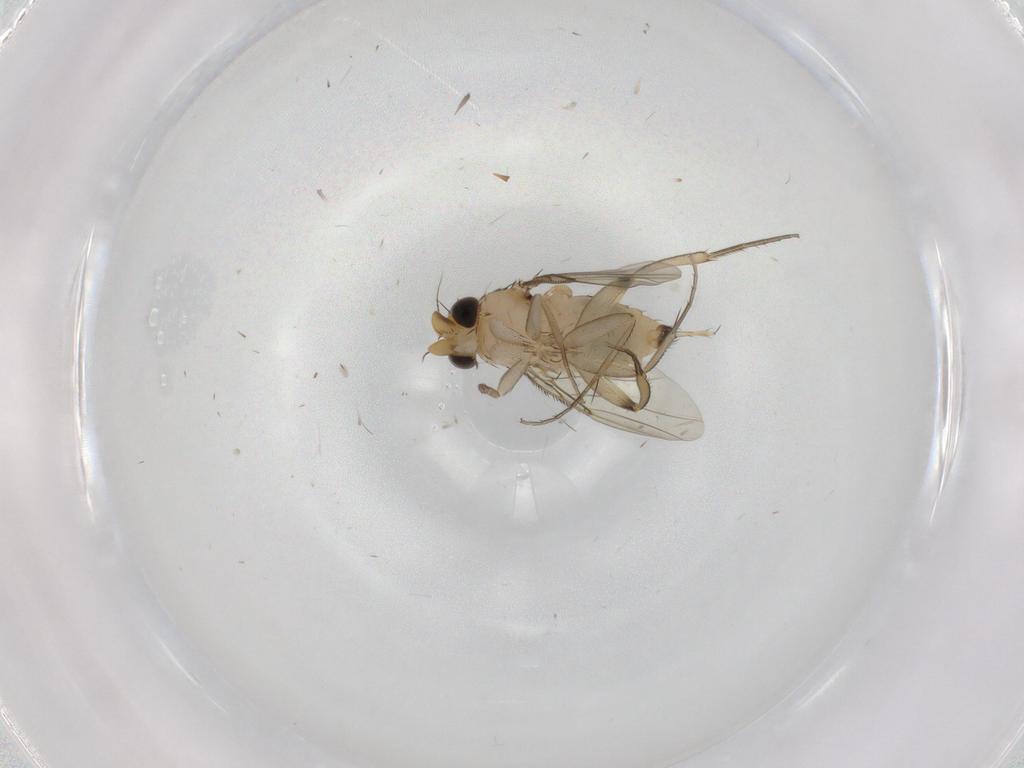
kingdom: Animalia
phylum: Arthropoda
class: Insecta
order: Diptera
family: Phoridae
